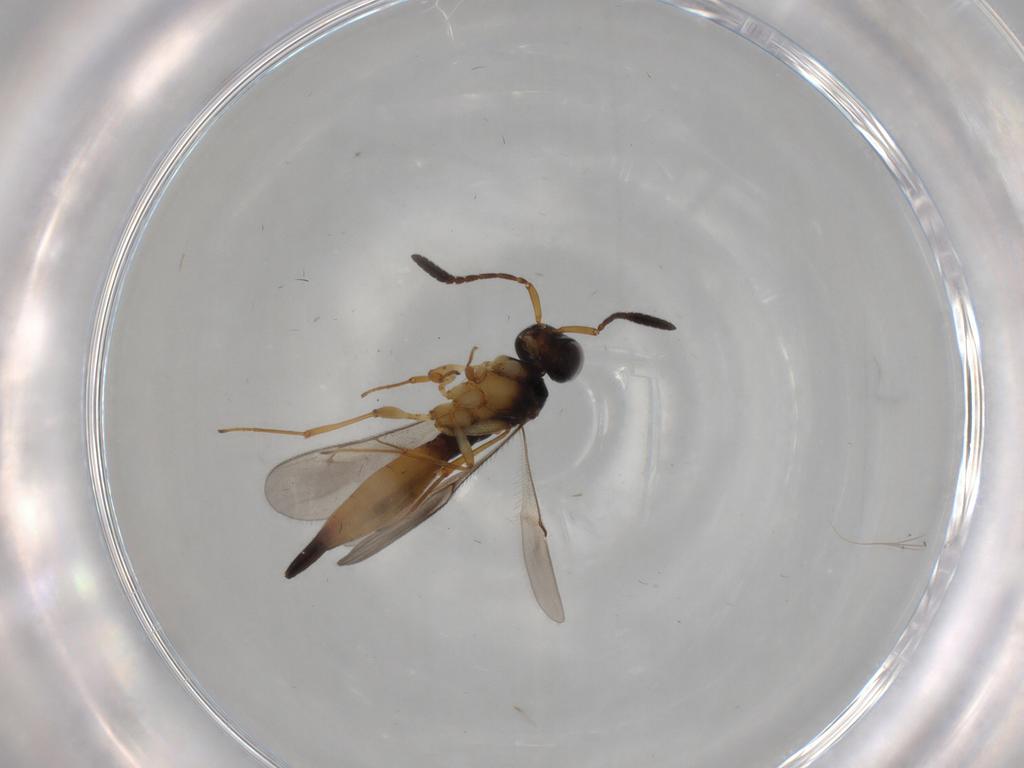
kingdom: Animalia
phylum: Arthropoda
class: Insecta
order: Hymenoptera
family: Scelionidae
